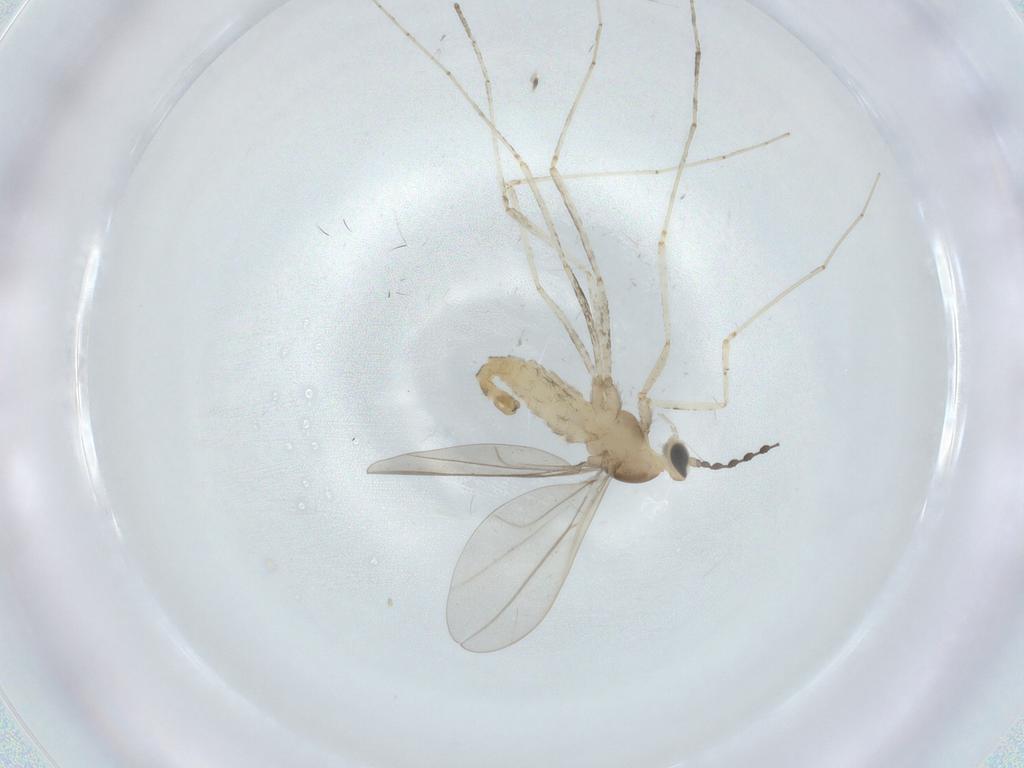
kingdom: Animalia
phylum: Arthropoda
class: Insecta
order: Diptera
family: Cecidomyiidae
